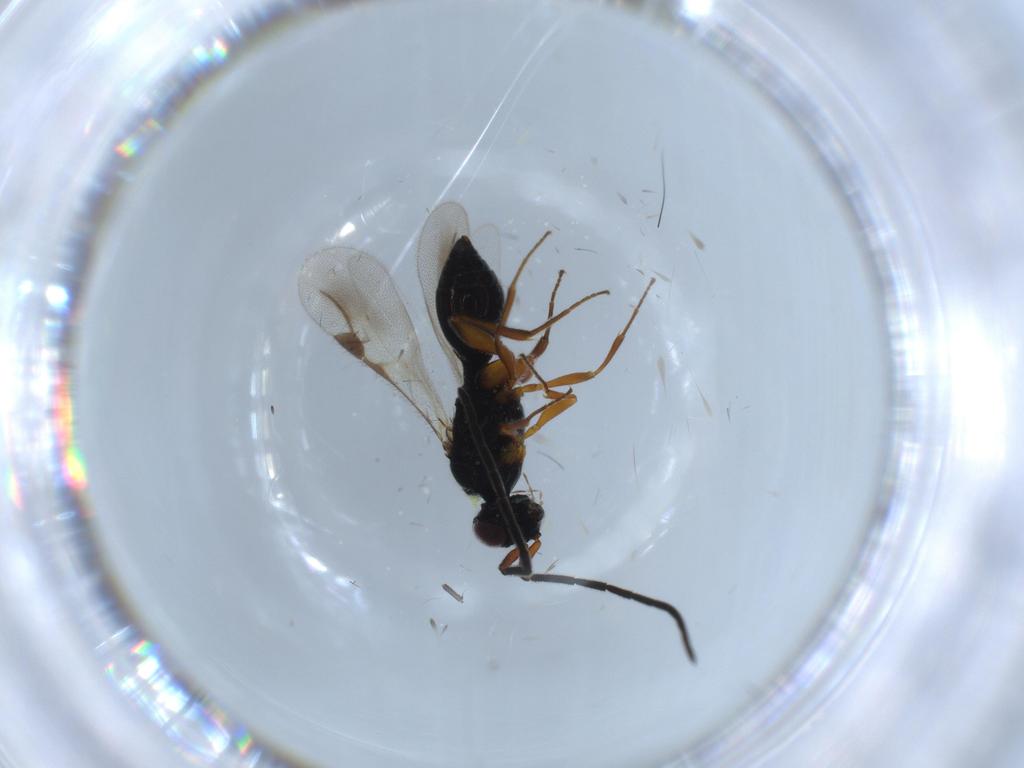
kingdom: Animalia
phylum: Arthropoda
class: Insecta
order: Hymenoptera
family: Megaspilidae
